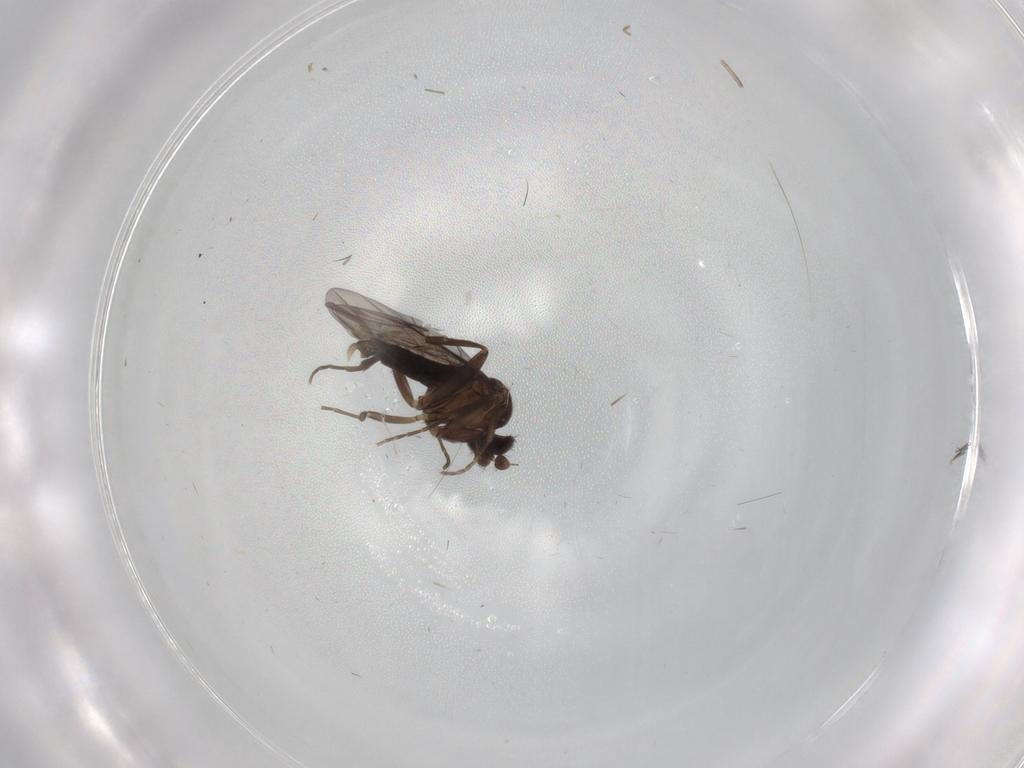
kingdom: Animalia
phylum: Arthropoda
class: Insecta
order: Diptera
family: Ceratopogonidae
